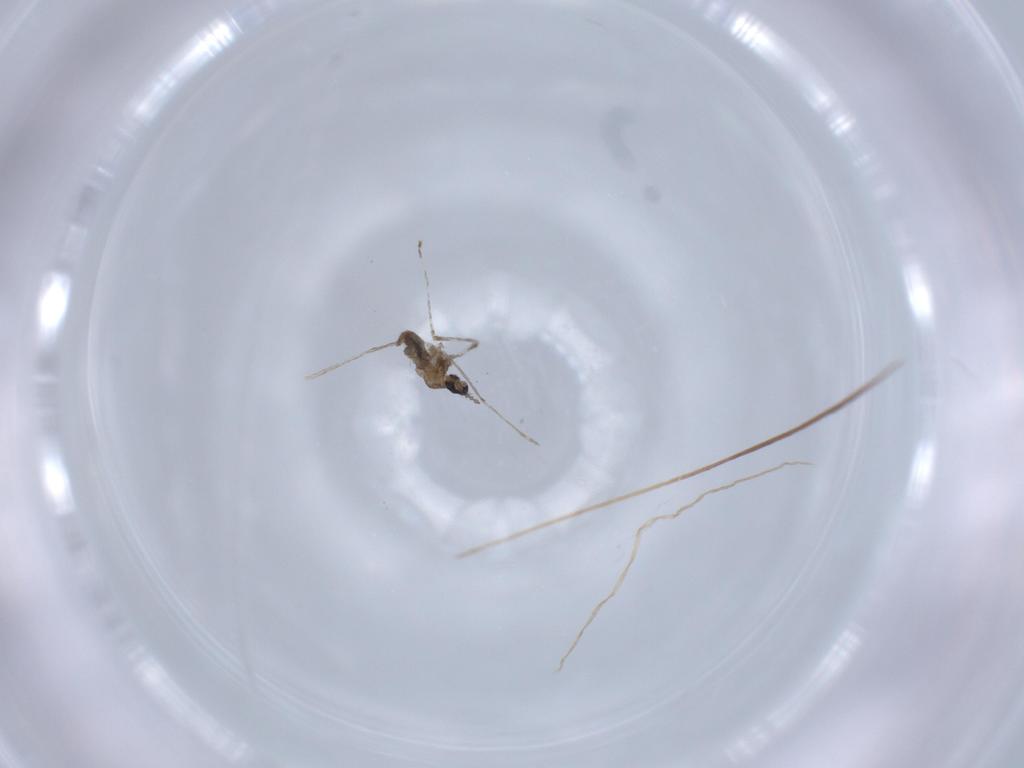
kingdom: Animalia
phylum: Arthropoda
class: Insecta
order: Diptera
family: Cecidomyiidae
